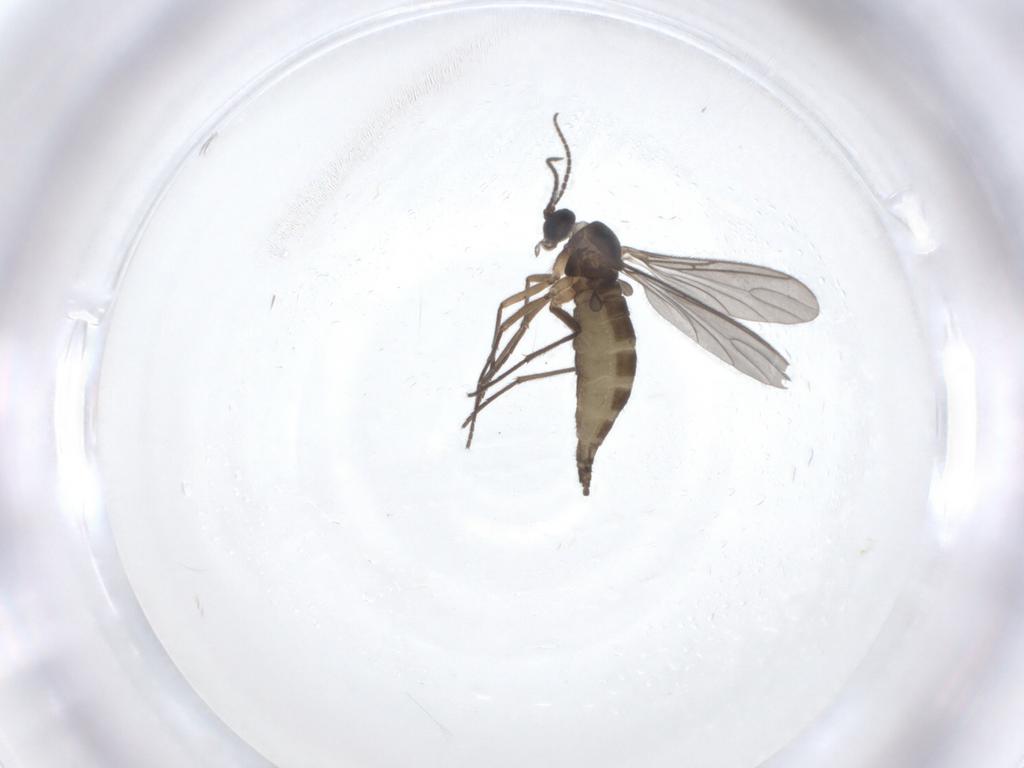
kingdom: Animalia
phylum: Arthropoda
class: Insecta
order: Diptera
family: Sciaridae
